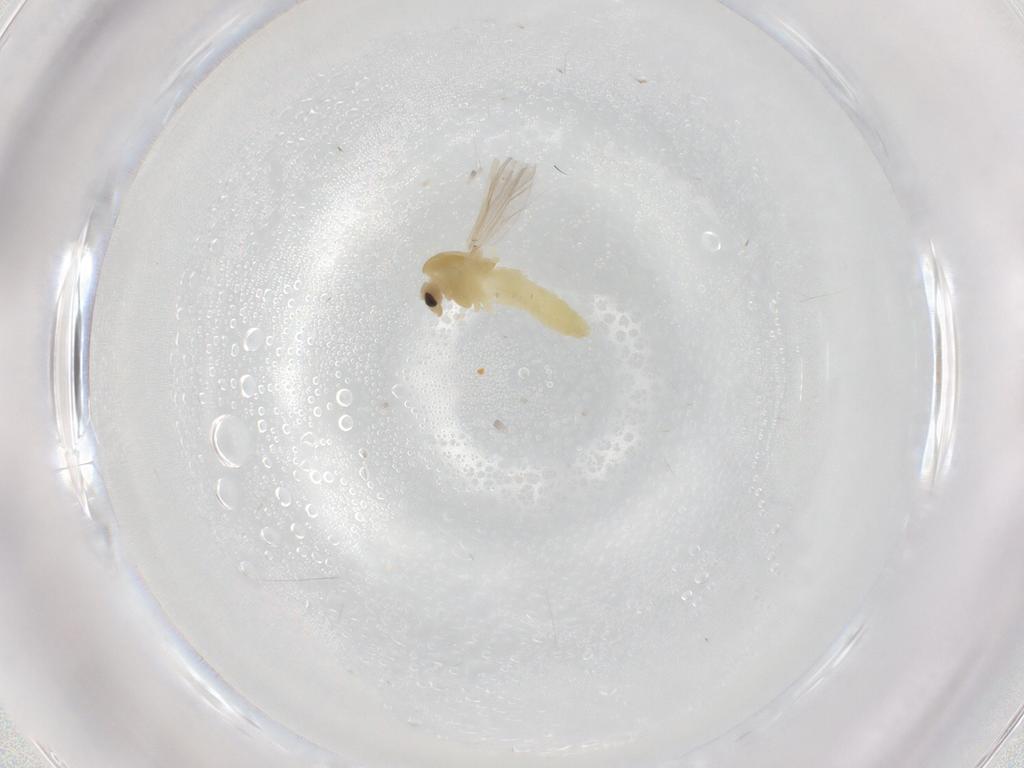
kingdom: Animalia
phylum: Arthropoda
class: Insecta
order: Diptera
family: Chironomidae
